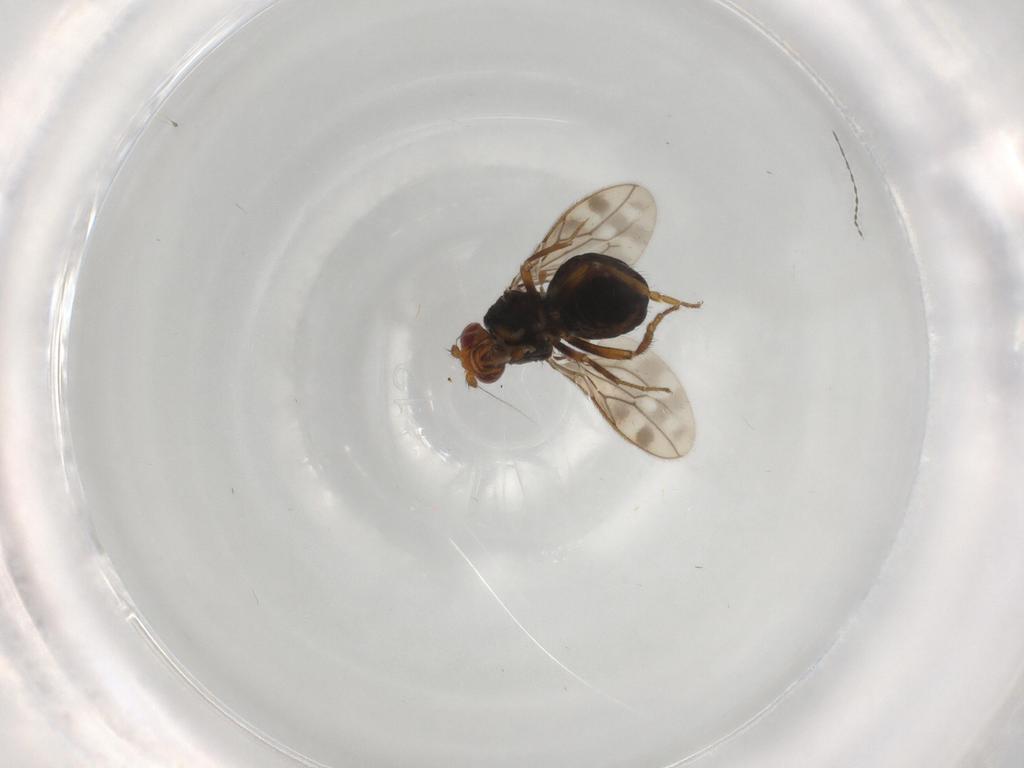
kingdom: Animalia
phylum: Arthropoda
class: Insecta
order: Diptera
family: Sphaeroceridae
